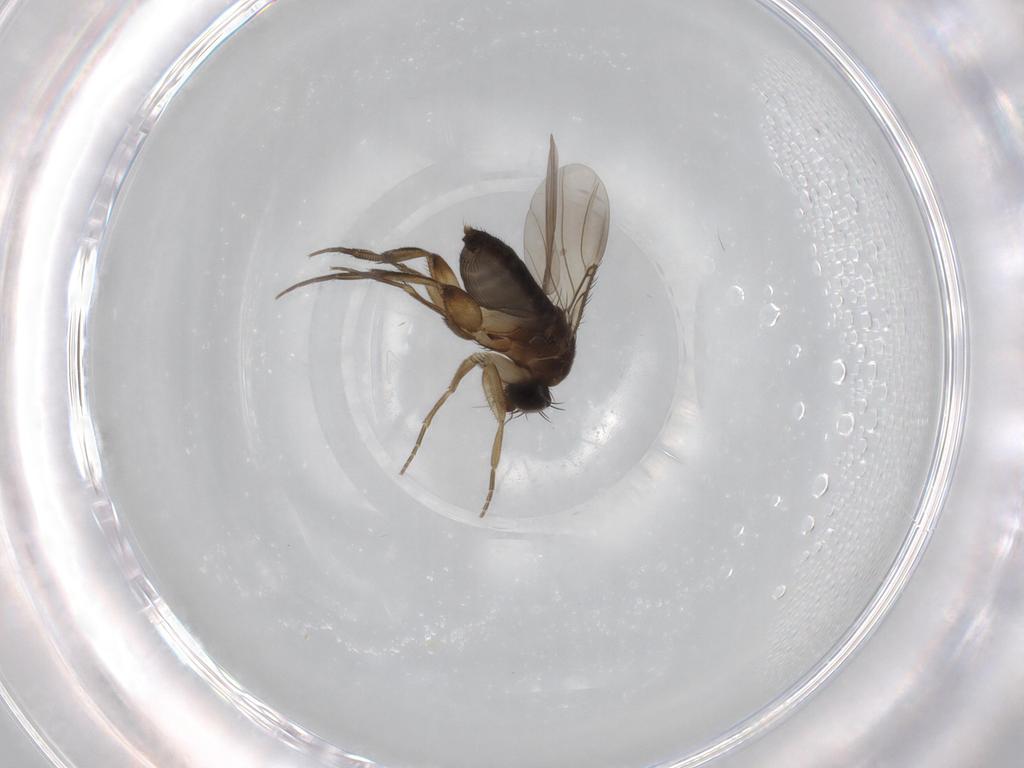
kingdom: Animalia
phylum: Arthropoda
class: Insecta
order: Diptera
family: Phoridae
